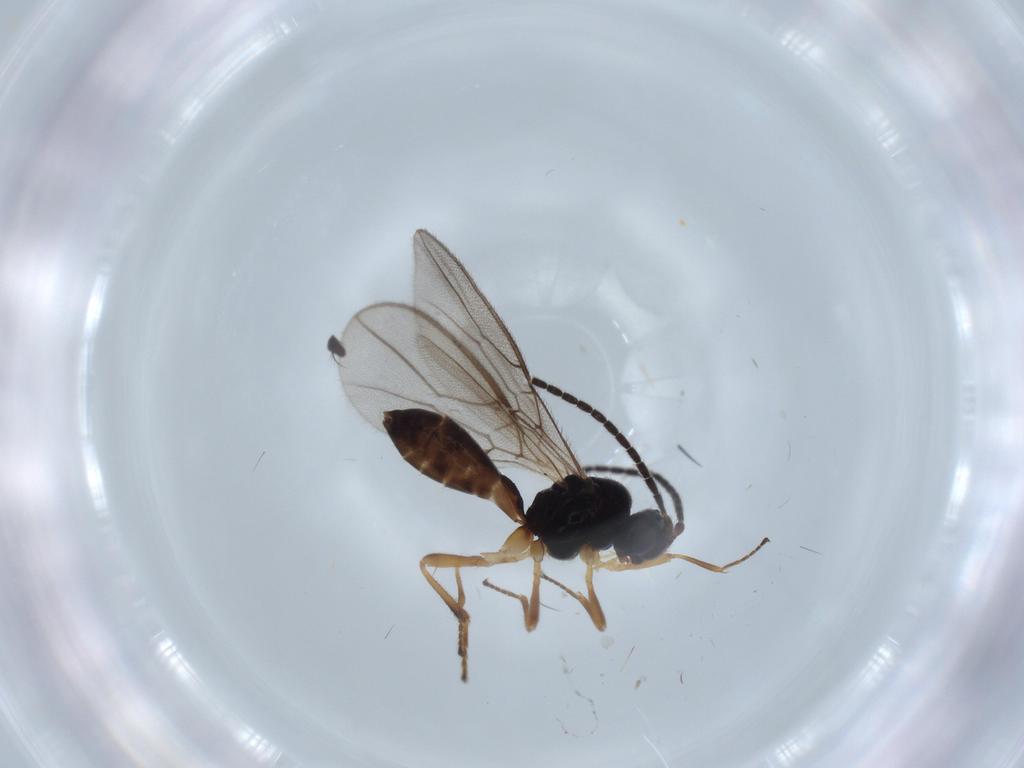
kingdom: Animalia
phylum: Arthropoda
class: Insecta
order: Hymenoptera
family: Braconidae
